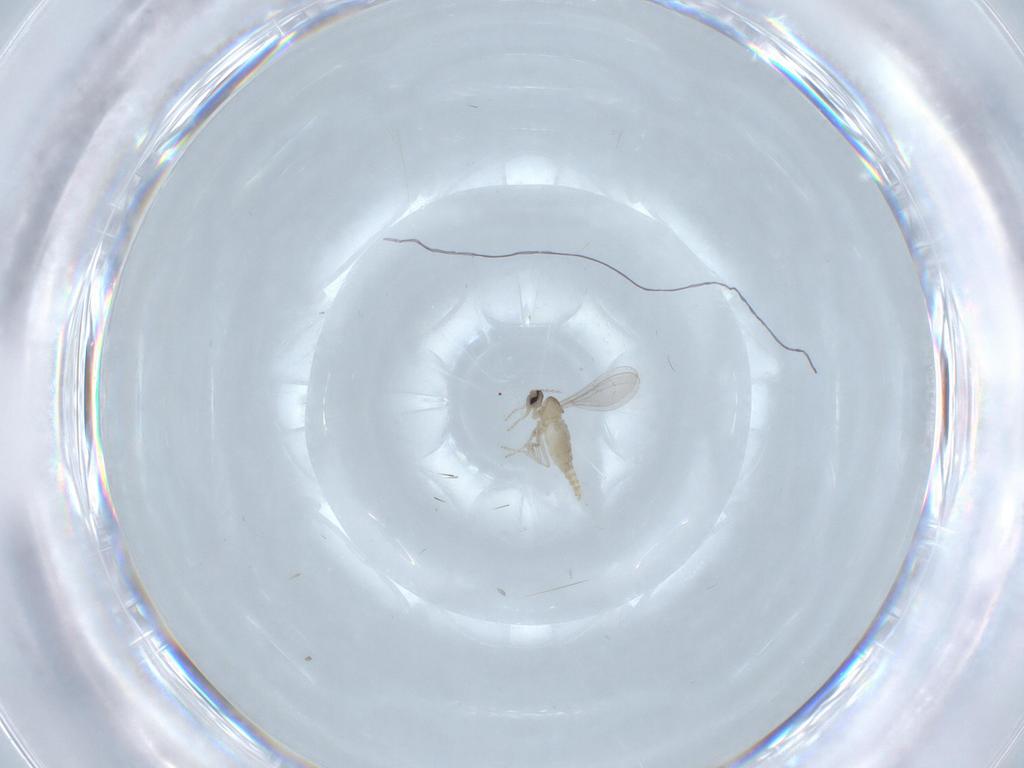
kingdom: Animalia
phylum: Arthropoda
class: Insecta
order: Diptera
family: Cecidomyiidae
